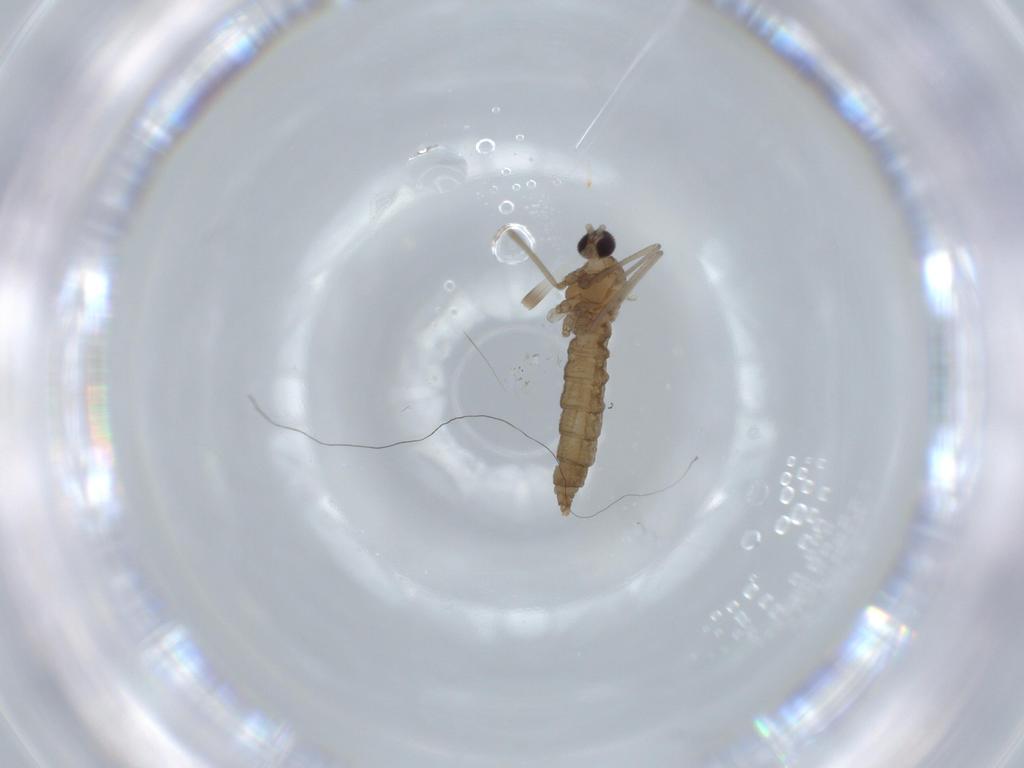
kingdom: Animalia
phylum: Arthropoda
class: Insecta
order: Diptera
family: Cecidomyiidae
